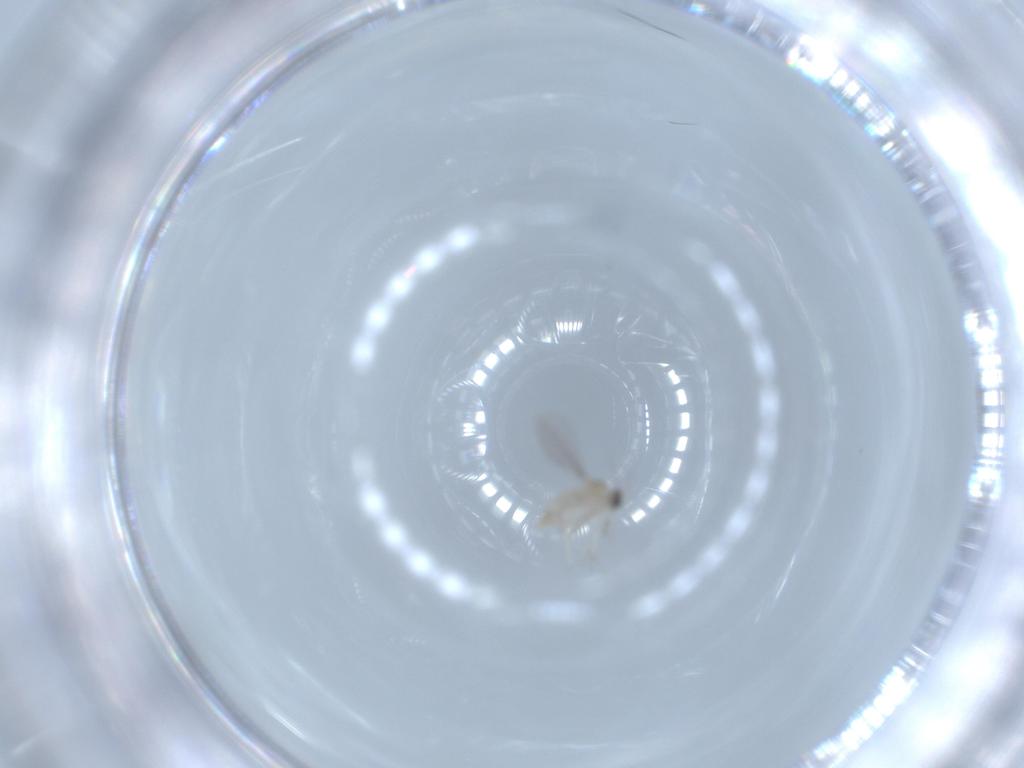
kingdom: Animalia
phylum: Arthropoda
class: Insecta
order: Diptera
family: Cecidomyiidae
